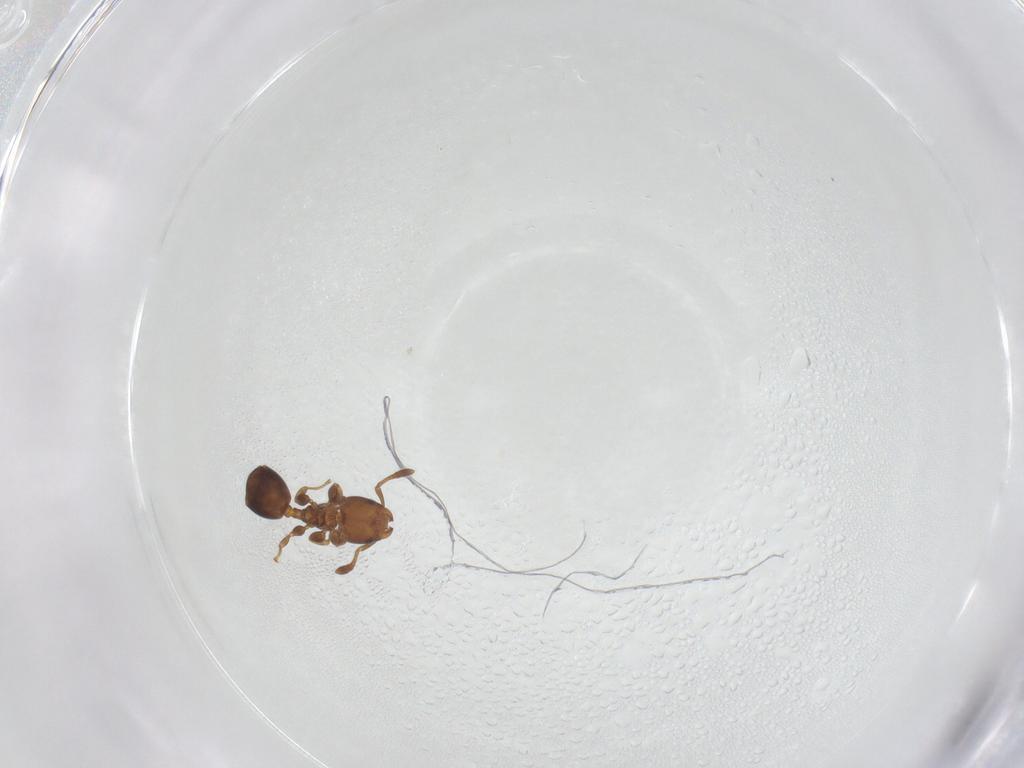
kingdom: Animalia
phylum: Arthropoda
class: Insecta
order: Hymenoptera
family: Formicidae
